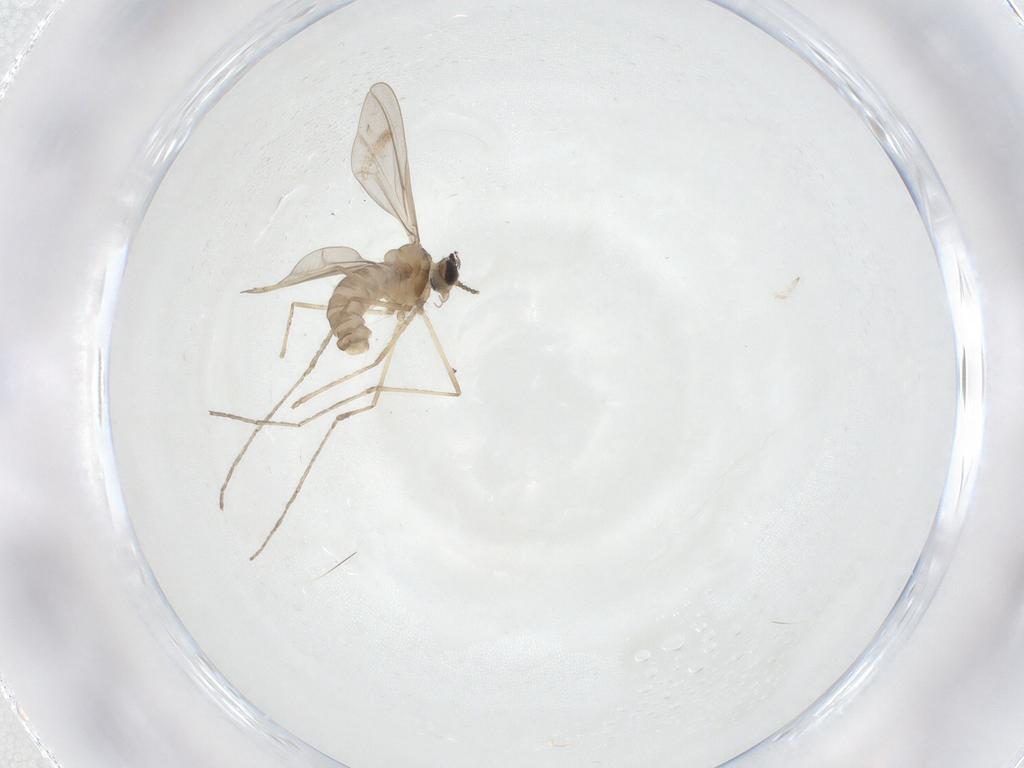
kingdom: Animalia
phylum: Arthropoda
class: Insecta
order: Diptera
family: Cecidomyiidae
